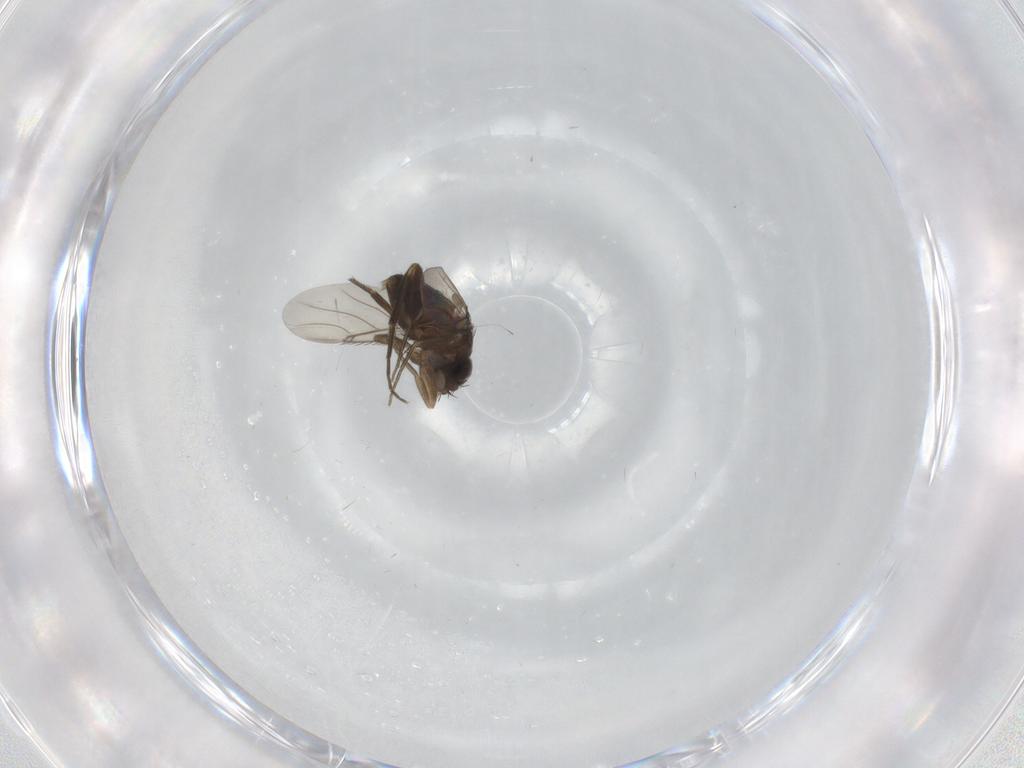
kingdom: Animalia
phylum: Arthropoda
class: Insecta
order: Diptera
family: Phoridae
